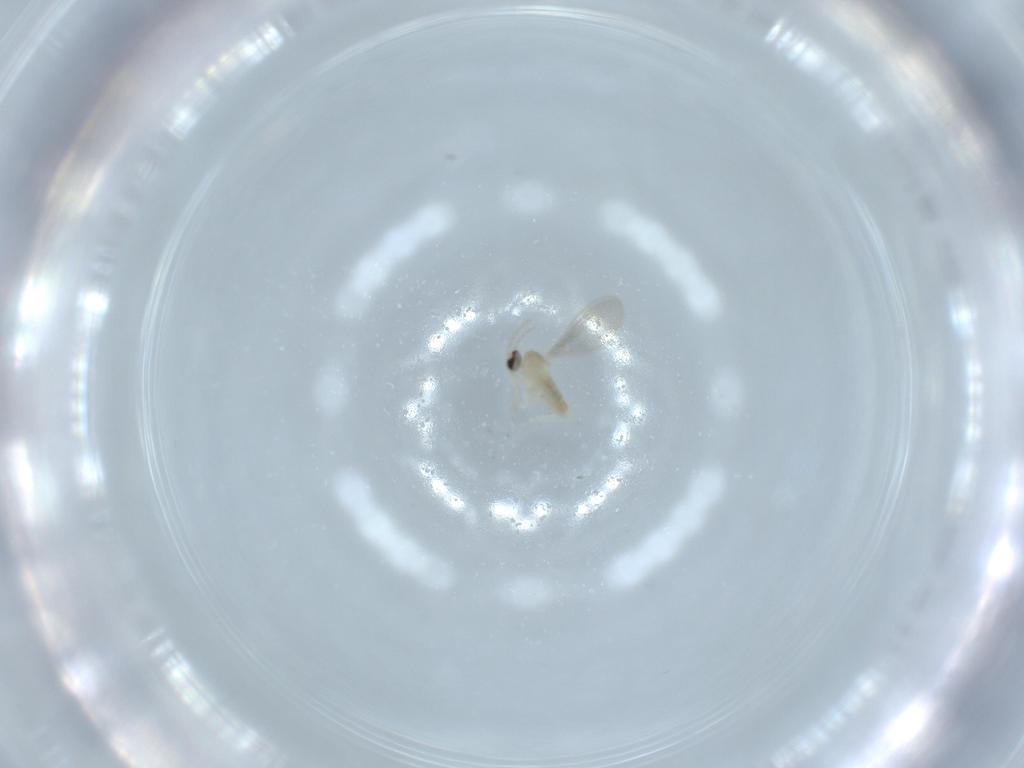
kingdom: Animalia
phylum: Arthropoda
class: Insecta
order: Diptera
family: Cecidomyiidae
